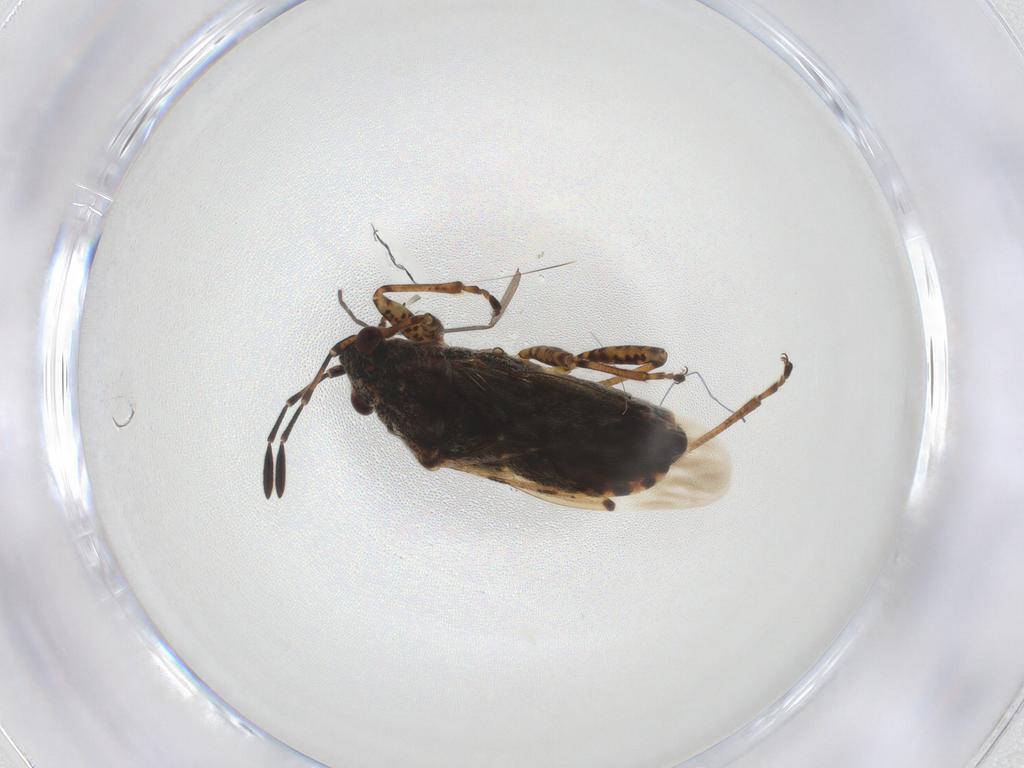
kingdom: Animalia
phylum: Arthropoda
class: Insecta
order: Hemiptera
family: Lygaeidae
